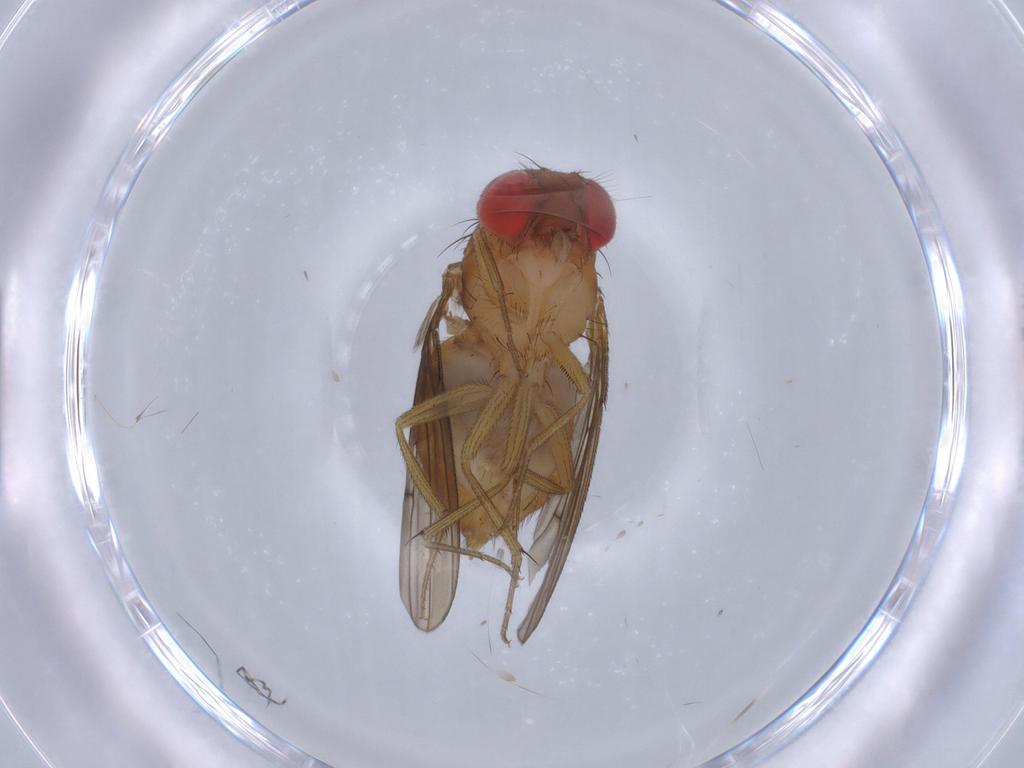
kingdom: Animalia
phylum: Arthropoda
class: Insecta
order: Diptera
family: Drosophilidae
